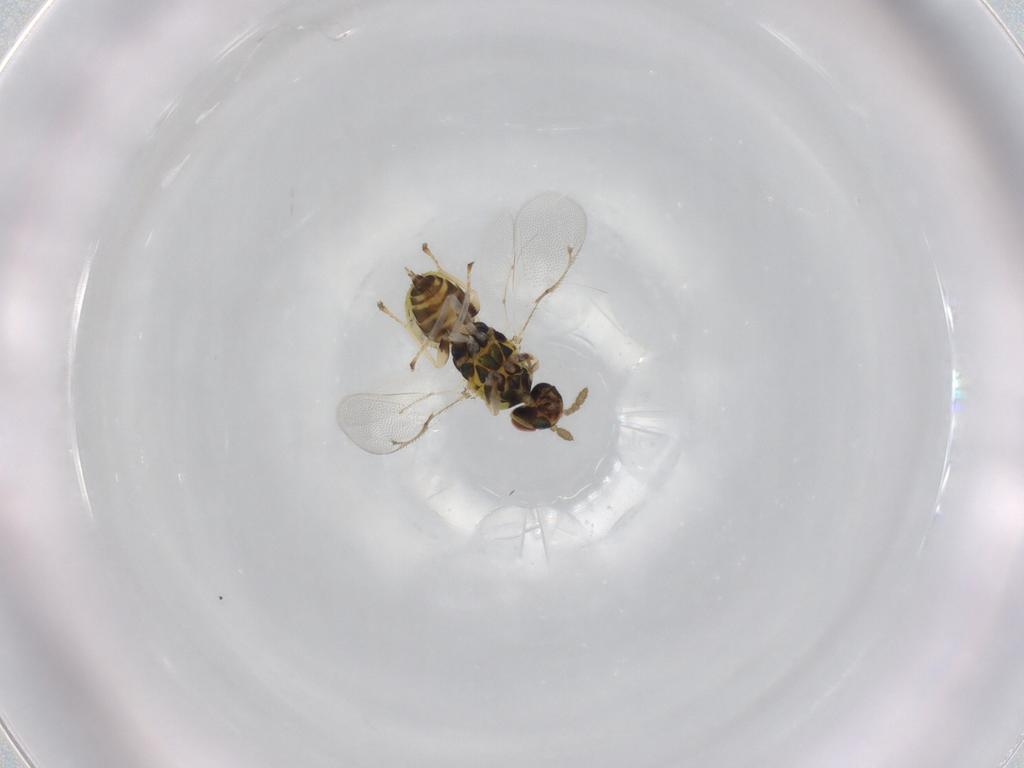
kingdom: Animalia
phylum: Arthropoda
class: Insecta
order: Hymenoptera
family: Eulophidae
